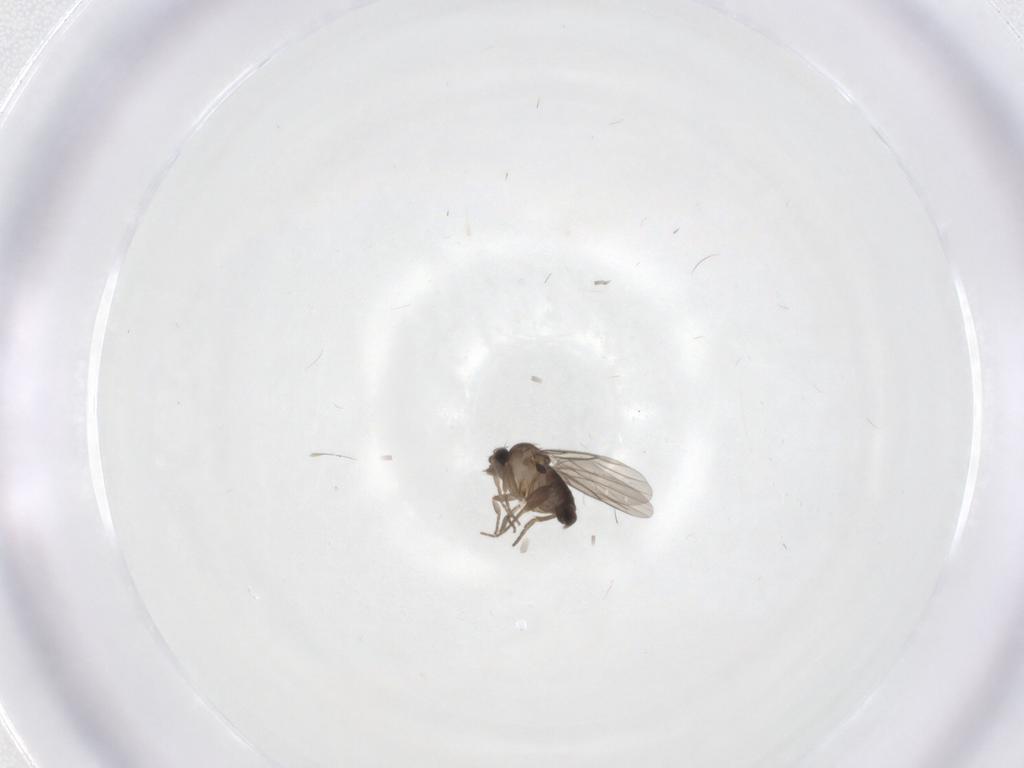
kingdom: Animalia
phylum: Arthropoda
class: Insecta
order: Diptera
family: Phoridae
